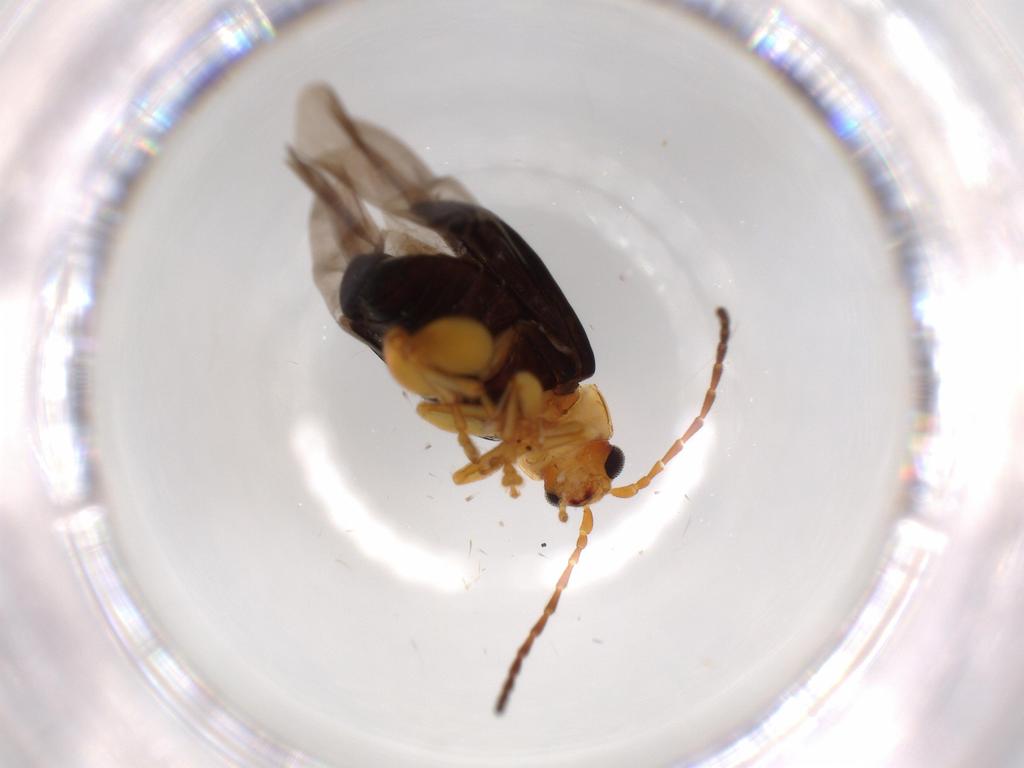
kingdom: Animalia
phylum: Arthropoda
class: Insecta
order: Coleoptera
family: Chrysomelidae
